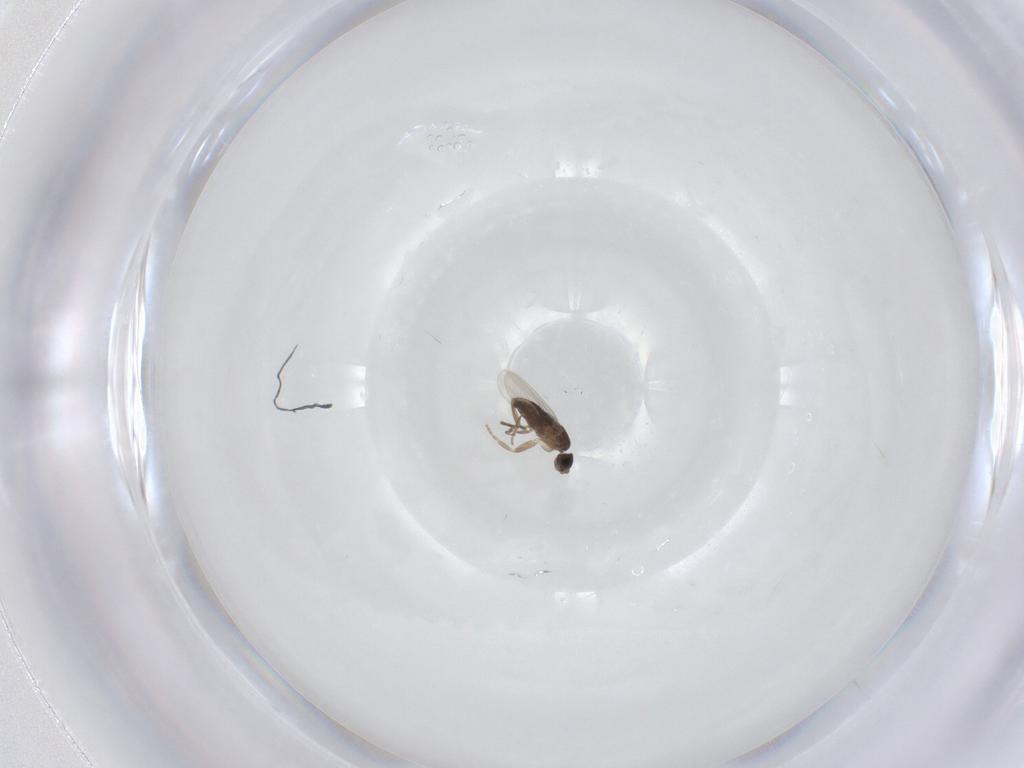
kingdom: Animalia
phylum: Arthropoda
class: Insecta
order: Diptera
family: Phoridae
